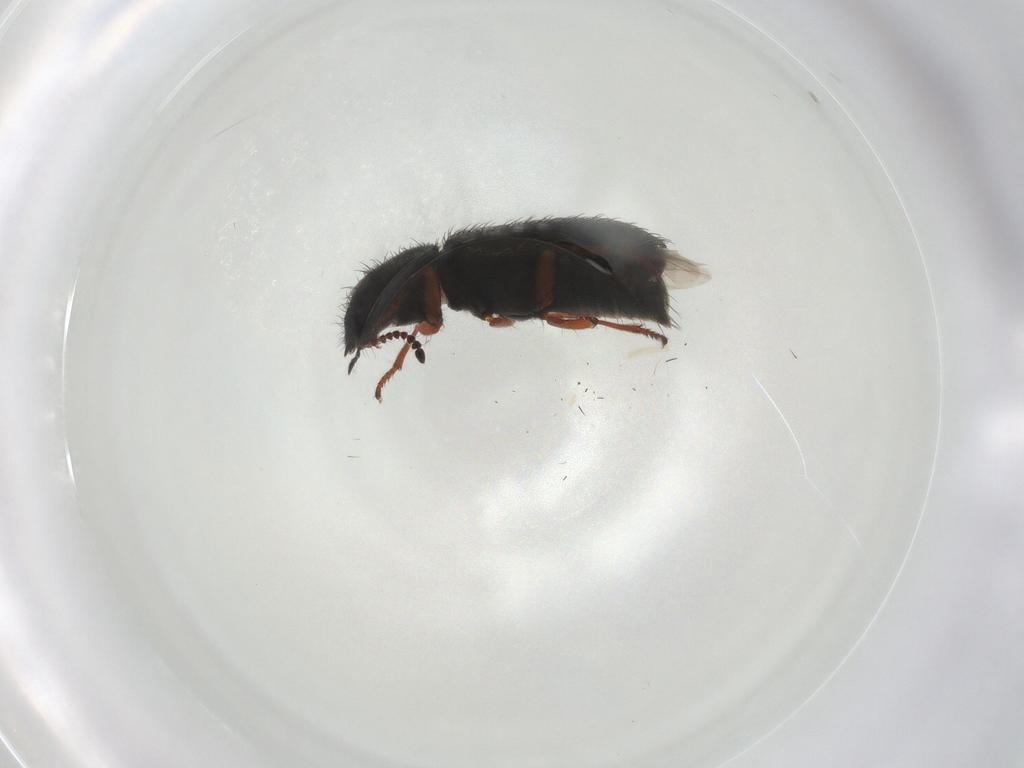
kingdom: Animalia
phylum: Arthropoda
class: Insecta
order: Coleoptera
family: Melyridae
